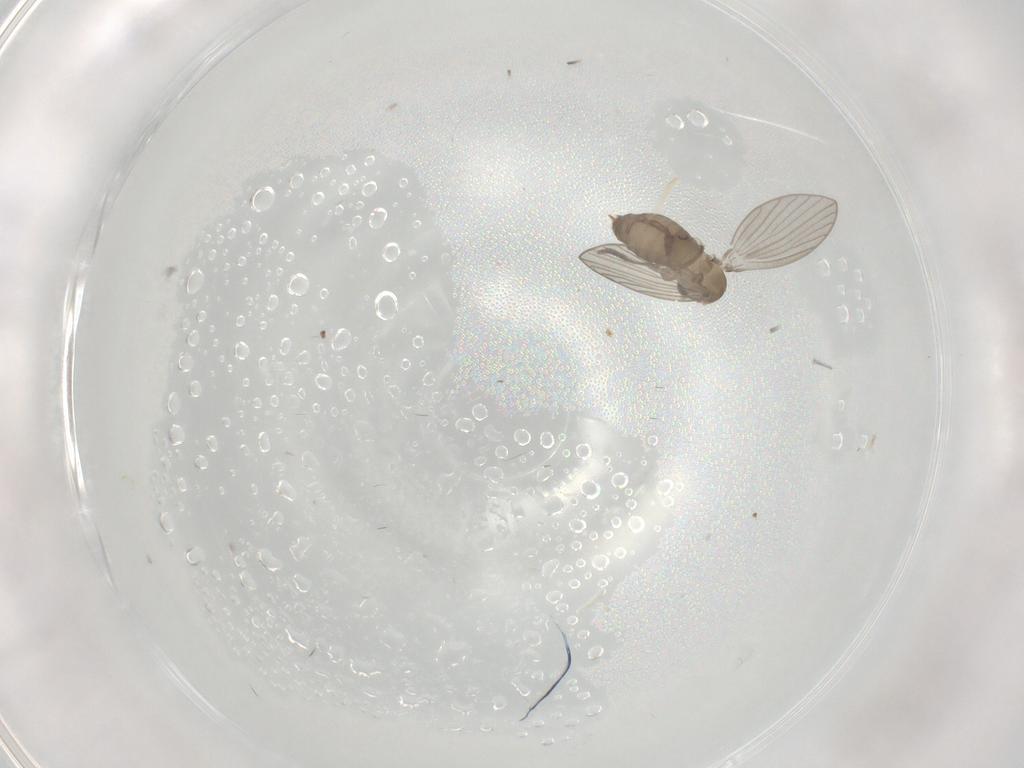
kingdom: Animalia
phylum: Arthropoda
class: Insecta
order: Diptera
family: Psychodidae
